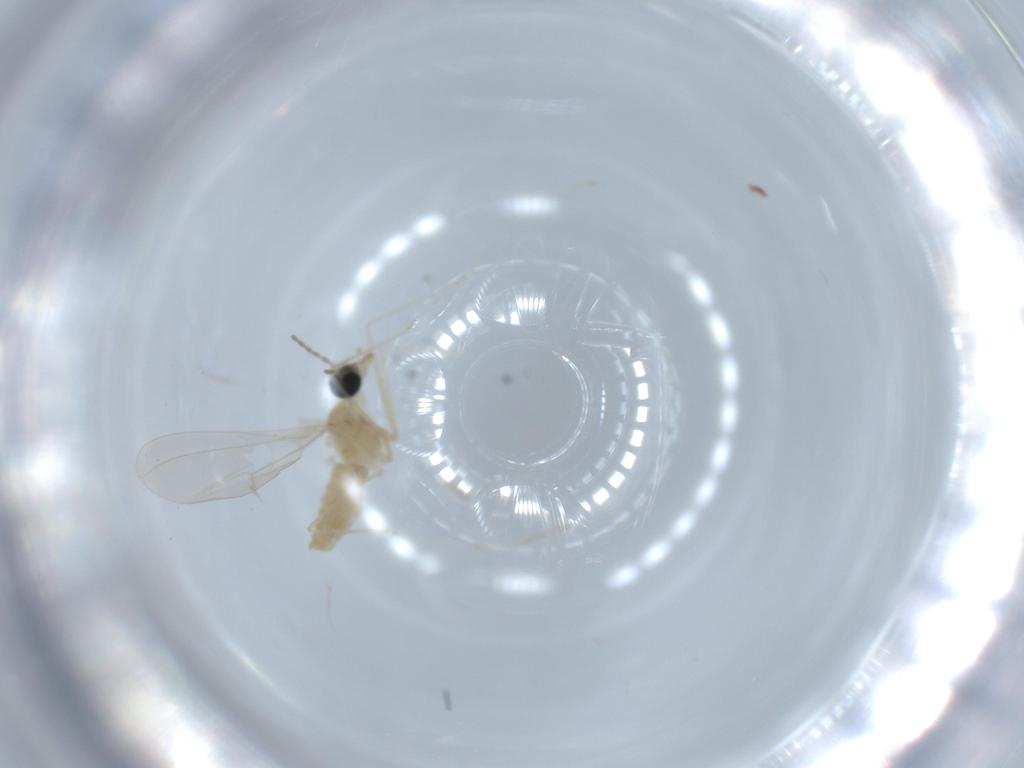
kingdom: Animalia
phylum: Arthropoda
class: Insecta
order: Diptera
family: Cecidomyiidae
